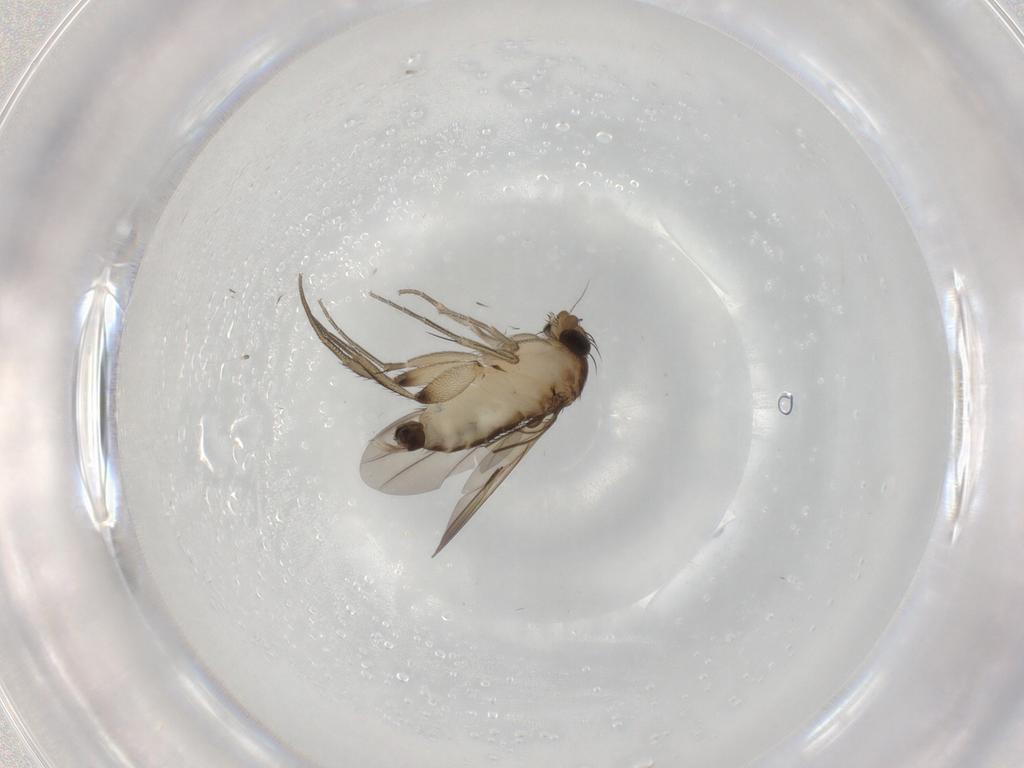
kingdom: Animalia
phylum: Arthropoda
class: Insecta
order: Diptera
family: Phoridae
